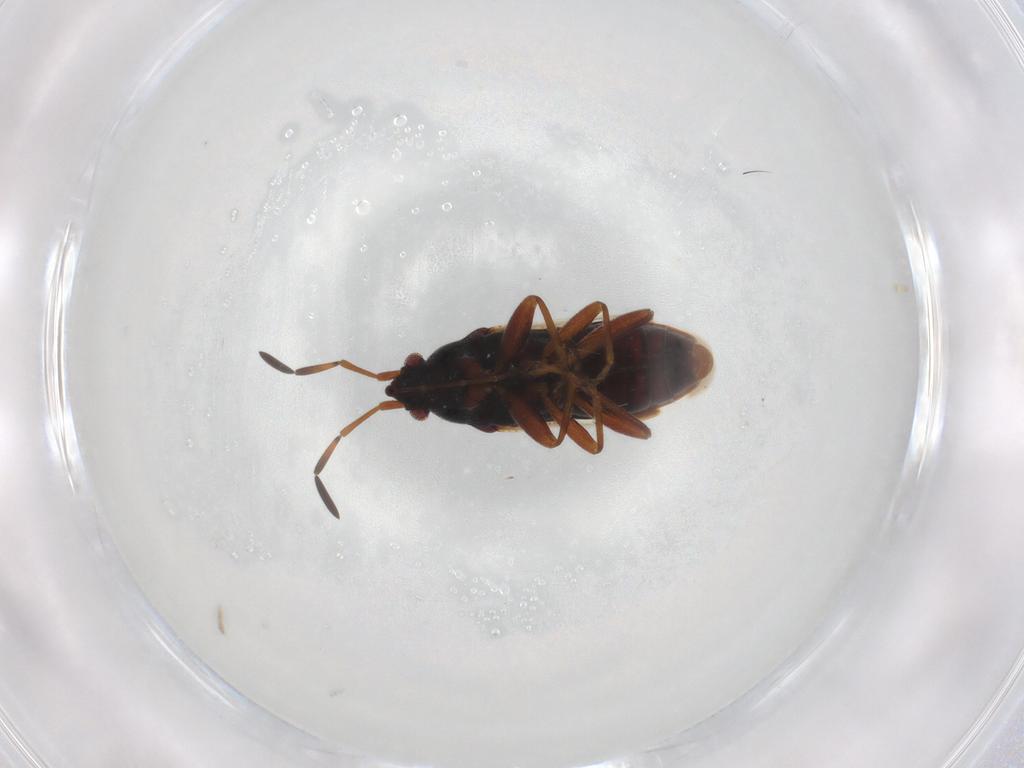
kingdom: Animalia
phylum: Arthropoda
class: Insecta
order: Hemiptera
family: Rhyparochromidae
